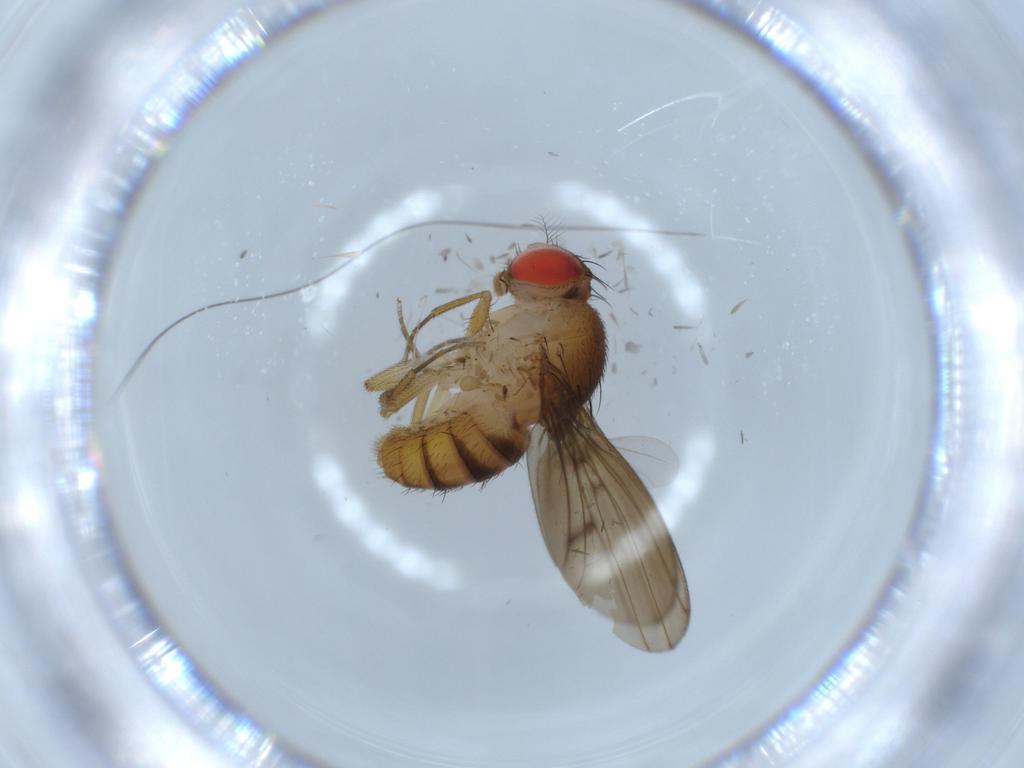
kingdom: Animalia
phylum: Arthropoda
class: Insecta
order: Diptera
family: Drosophilidae
